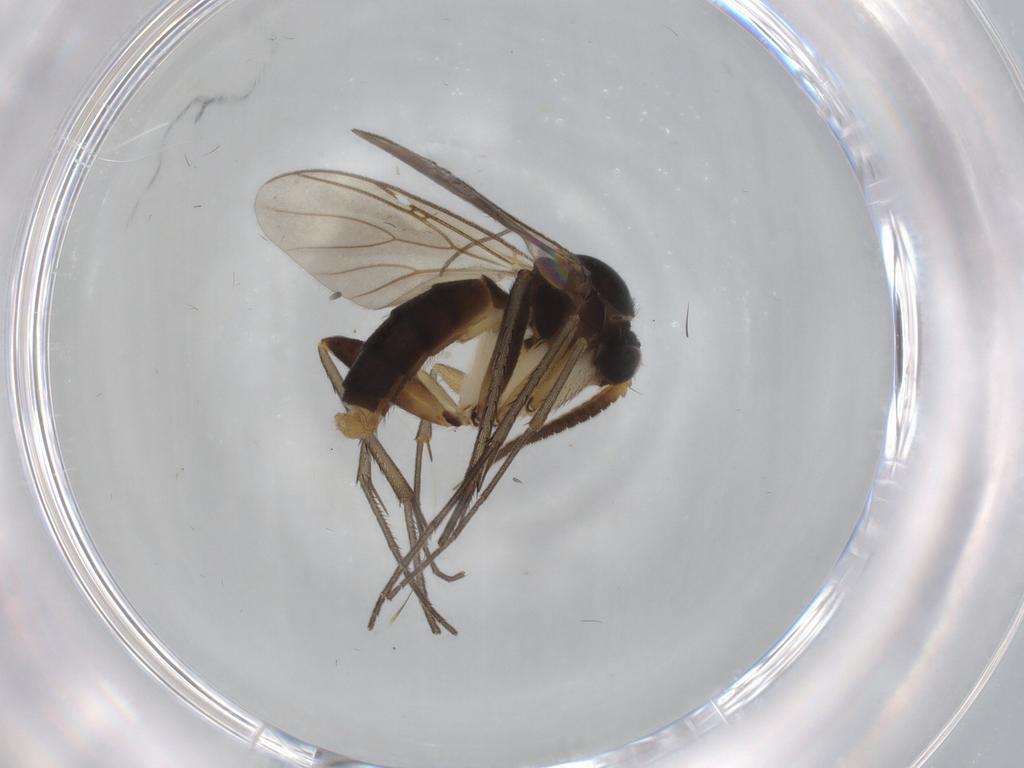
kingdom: Animalia
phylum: Arthropoda
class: Insecta
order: Diptera
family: Mycetophilidae
